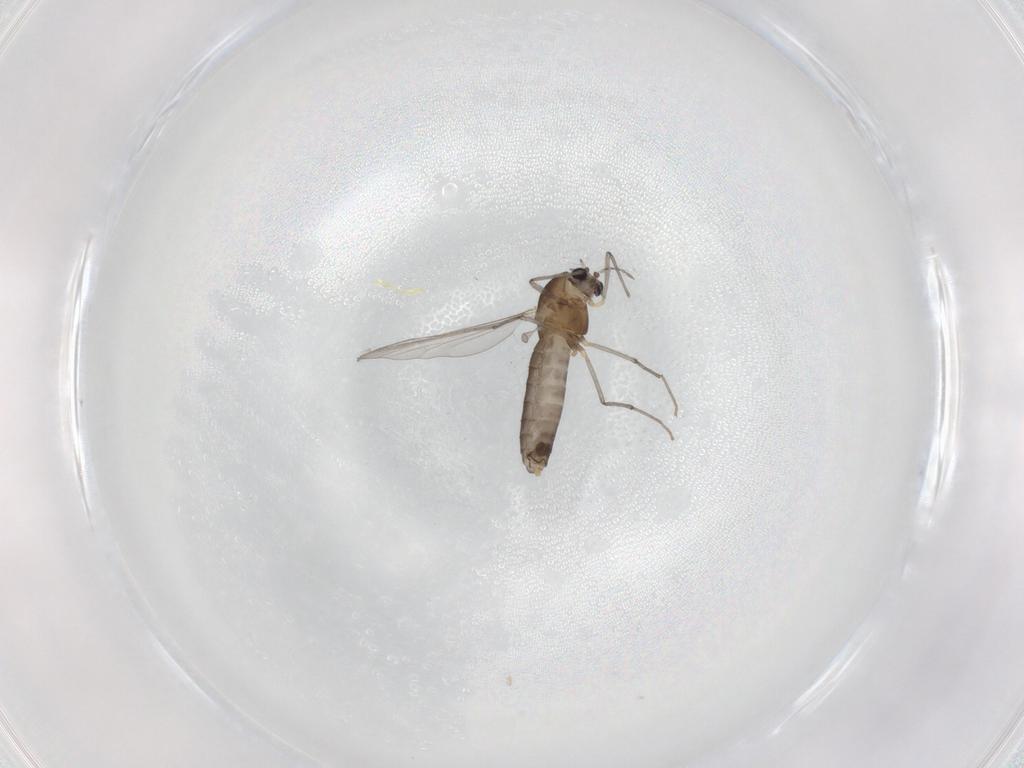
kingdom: Animalia
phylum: Arthropoda
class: Insecta
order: Diptera
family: Chironomidae
